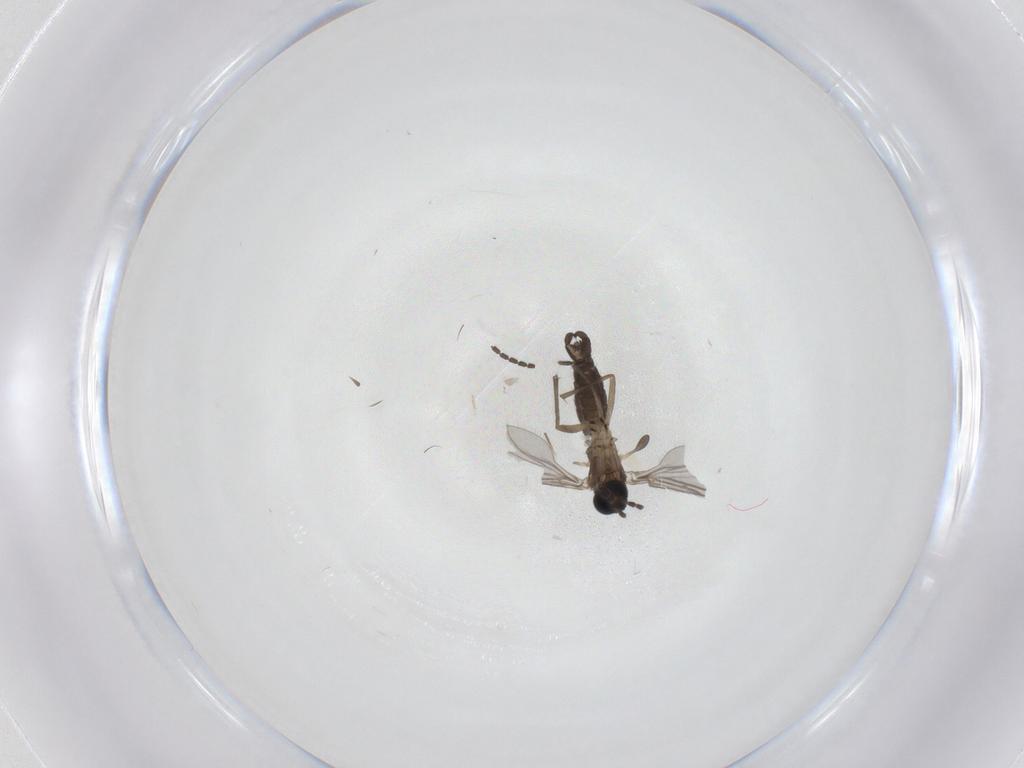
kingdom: Animalia
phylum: Arthropoda
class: Insecta
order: Diptera
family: Sciaridae
